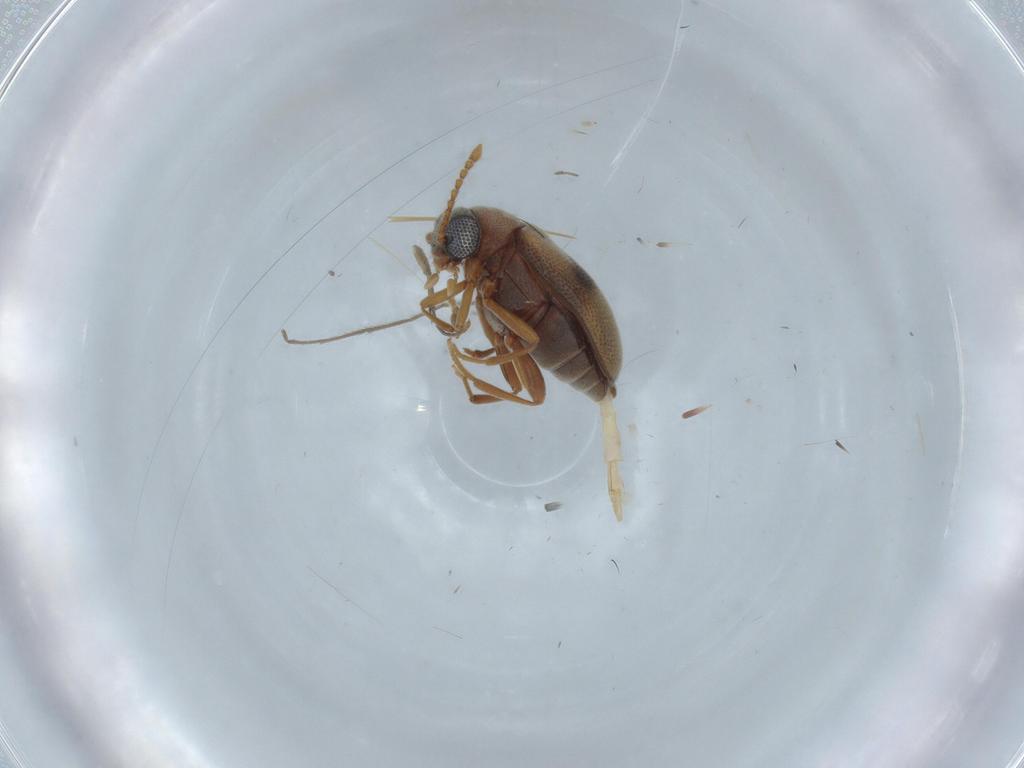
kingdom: Animalia
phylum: Arthropoda
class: Insecta
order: Coleoptera
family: Aderidae
